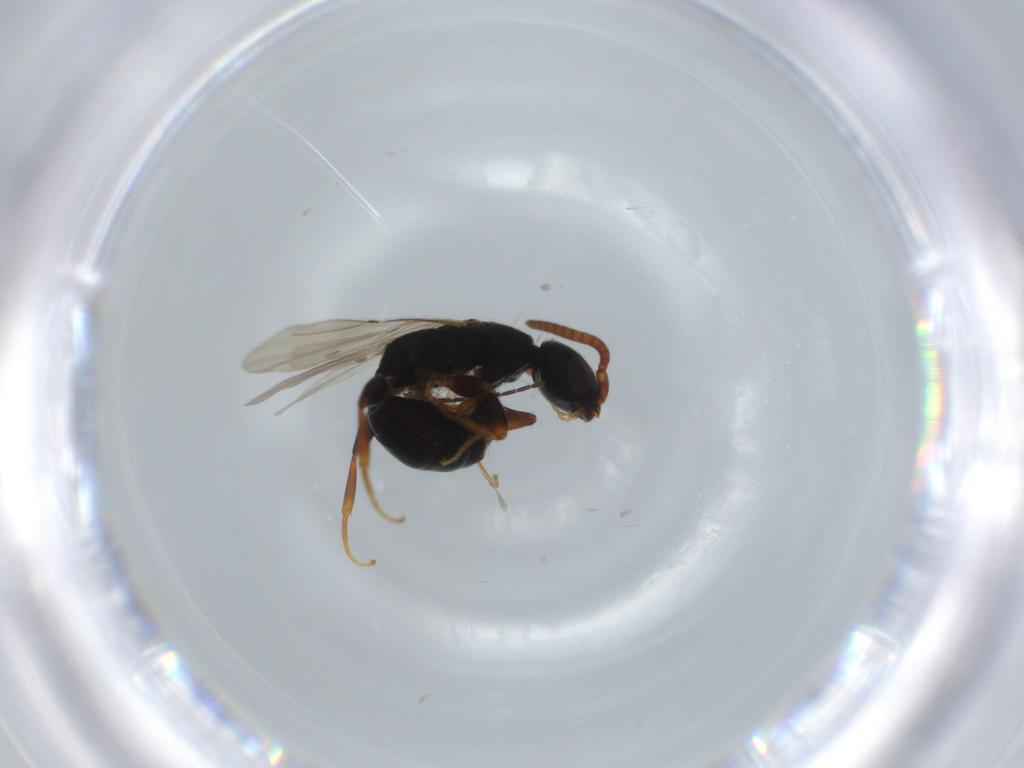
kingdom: Animalia
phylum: Arthropoda
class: Insecta
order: Hymenoptera
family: Bethylidae
